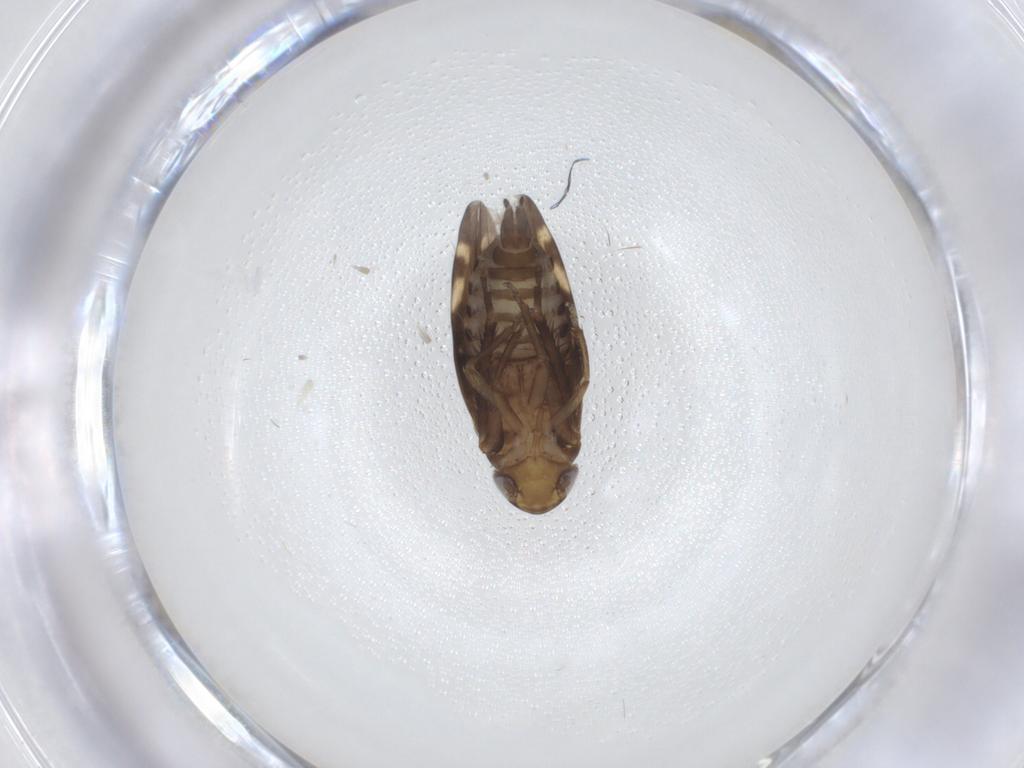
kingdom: Animalia
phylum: Arthropoda
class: Insecta
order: Hemiptera
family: Cicadellidae
